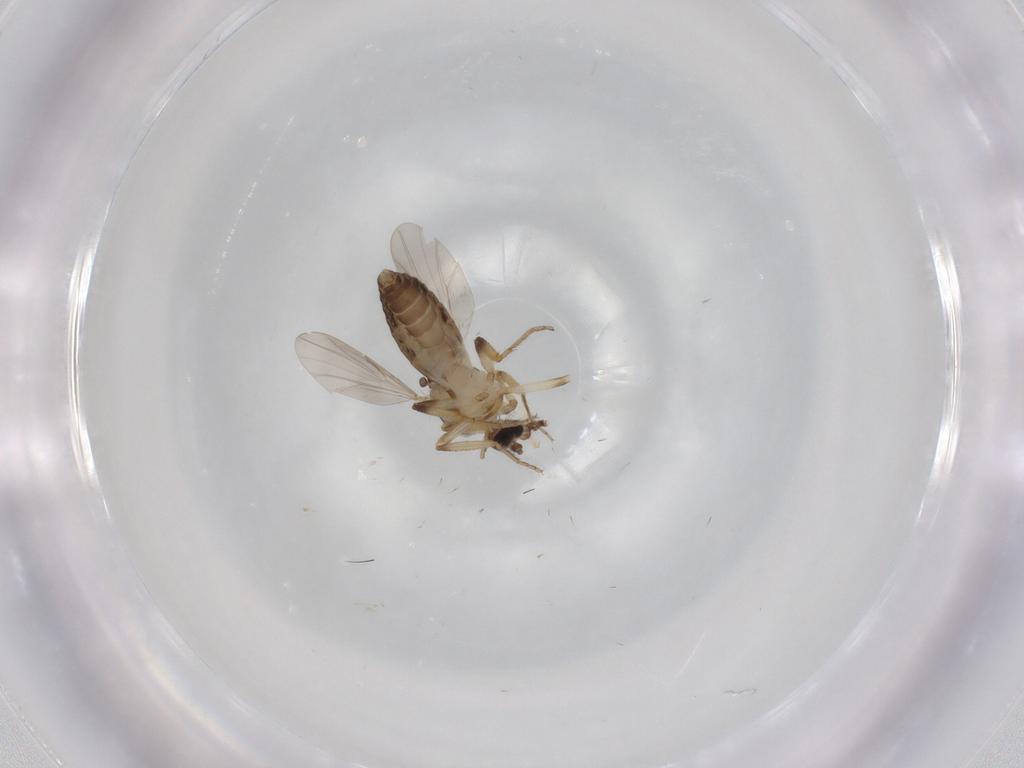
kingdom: Animalia
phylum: Arthropoda
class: Insecta
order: Diptera
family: Ceratopogonidae
